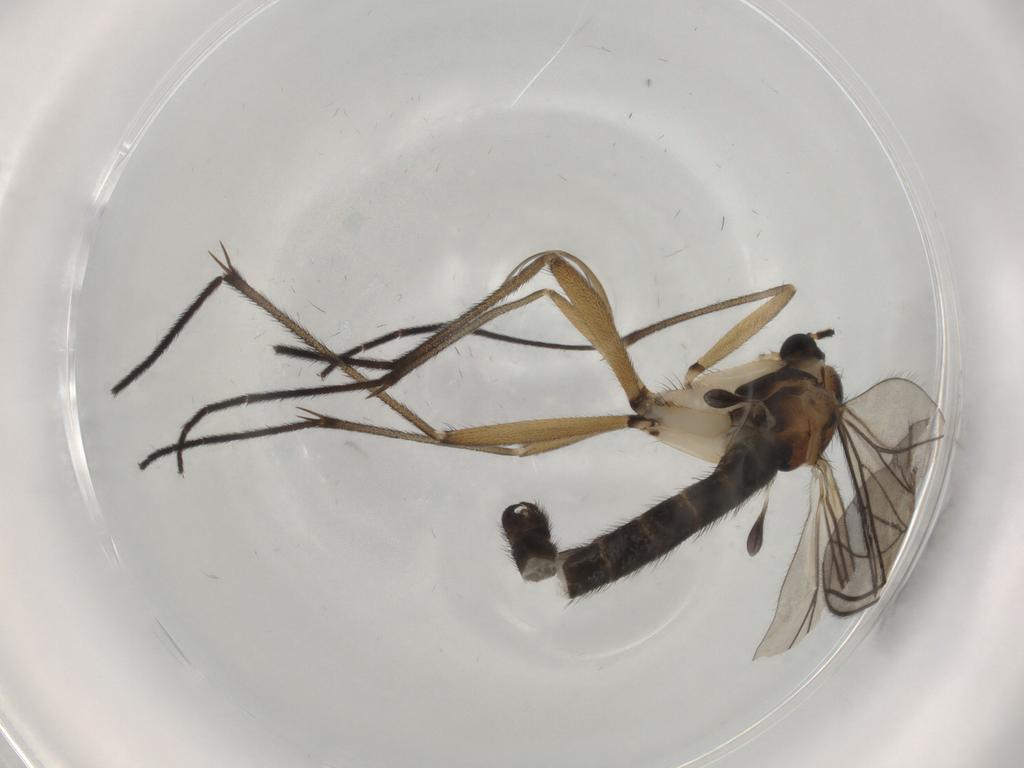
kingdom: Animalia
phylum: Arthropoda
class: Insecta
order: Diptera
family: Sciaridae
